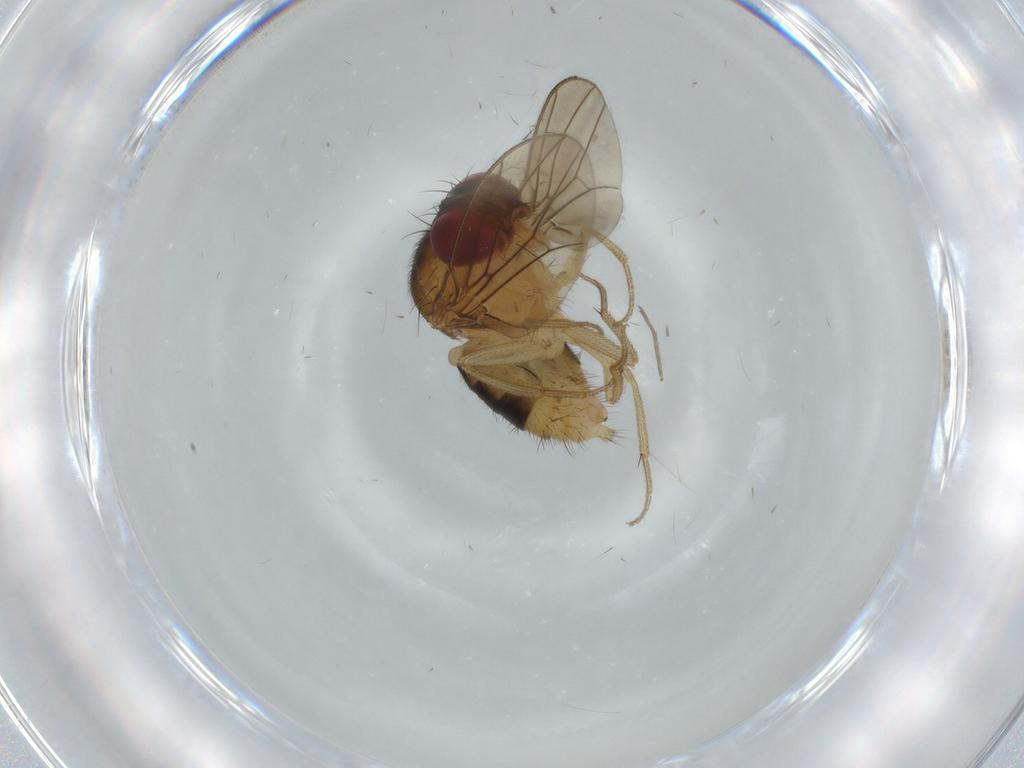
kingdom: Animalia
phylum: Arthropoda
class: Insecta
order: Diptera
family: Drosophilidae
